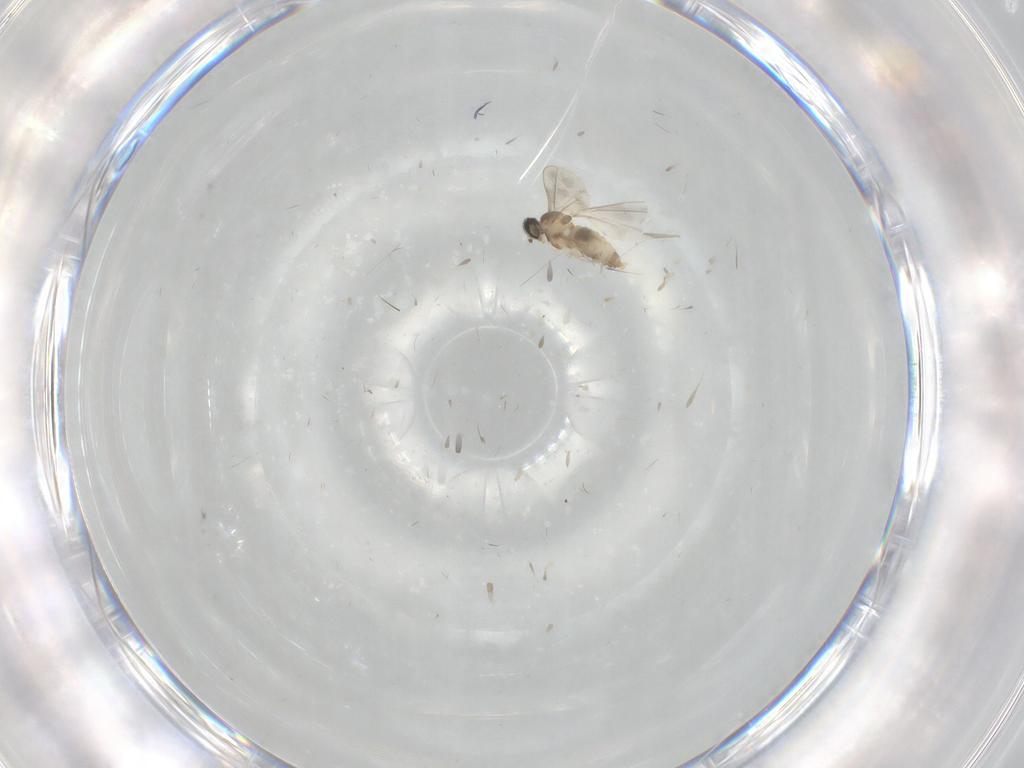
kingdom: Animalia
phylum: Arthropoda
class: Insecta
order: Diptera
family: Cecidomyiidae
